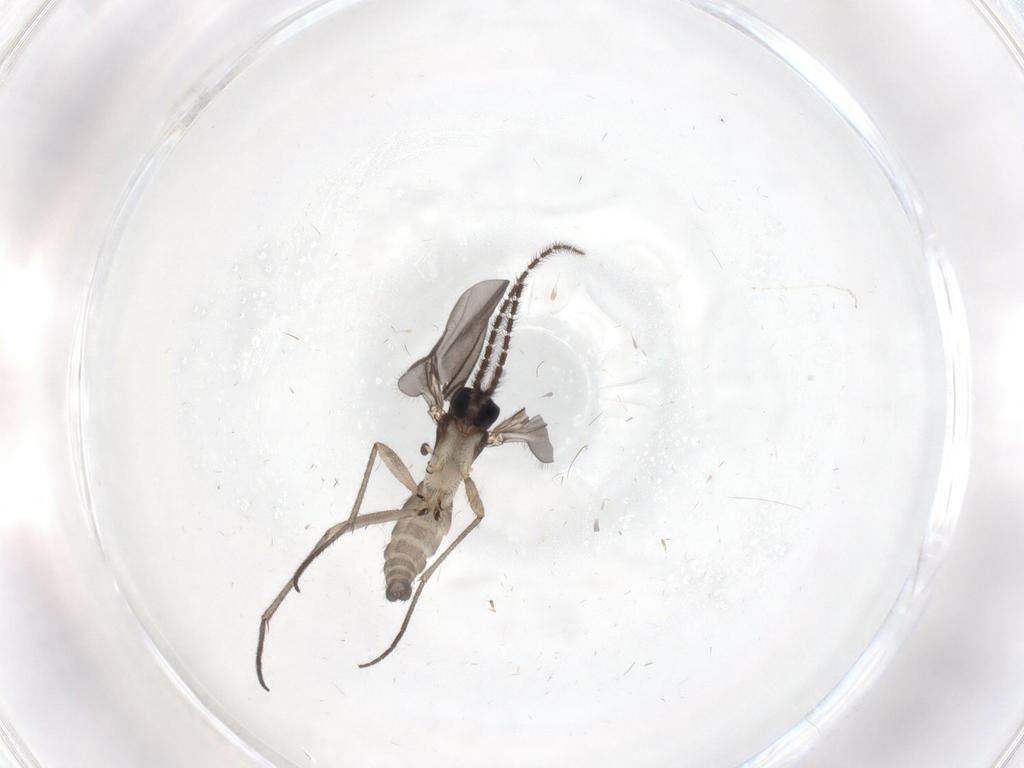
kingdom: Animalia
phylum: Arthropoda
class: Insecta
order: Diptera
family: Sciaridae
